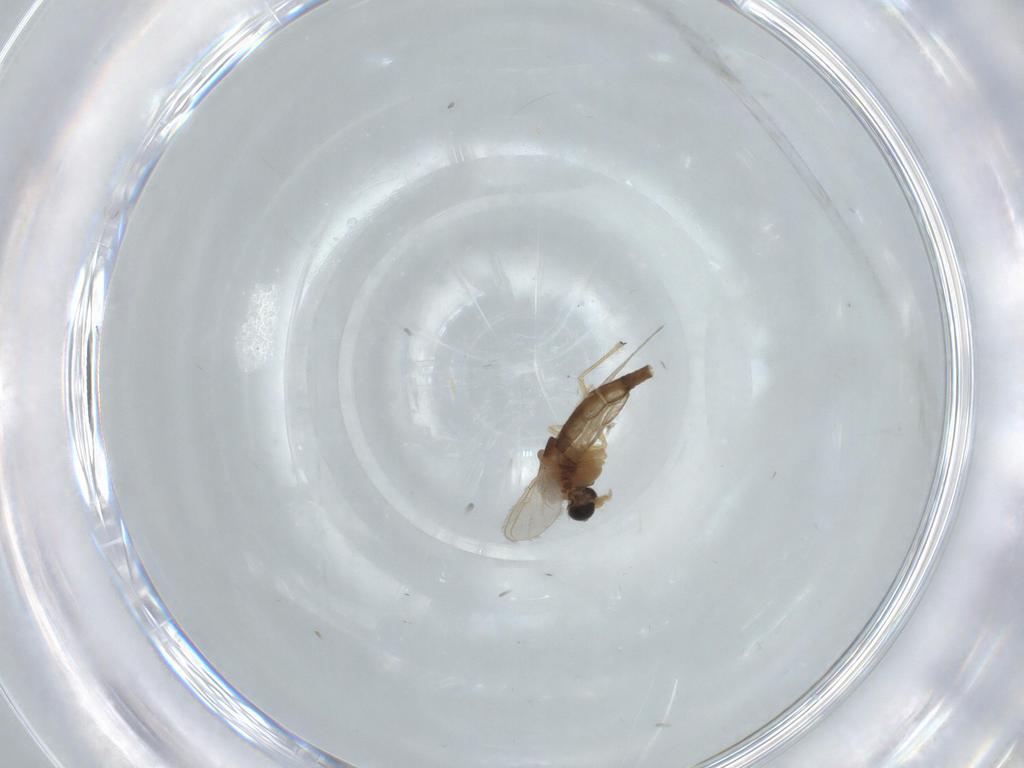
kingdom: Animalia
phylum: Arthropoda
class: Insecta
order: Diptera
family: Chironomidae
